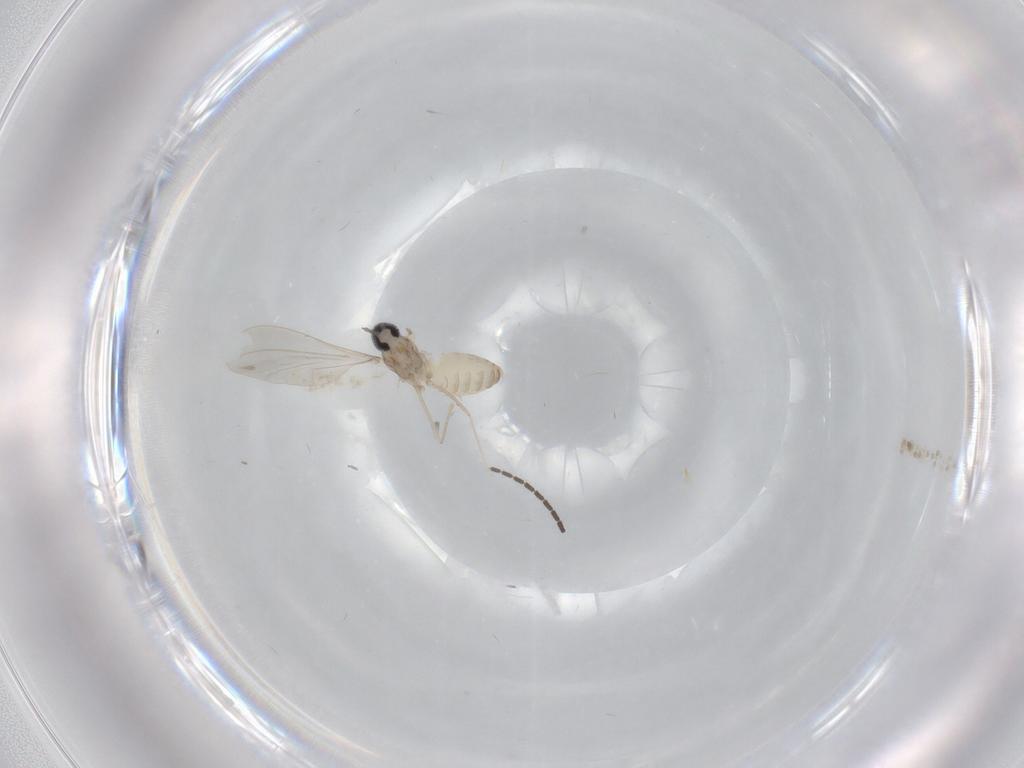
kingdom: Animalia
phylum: Arthropoda
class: Insecta
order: Diptera
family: Cecidomyiidae
